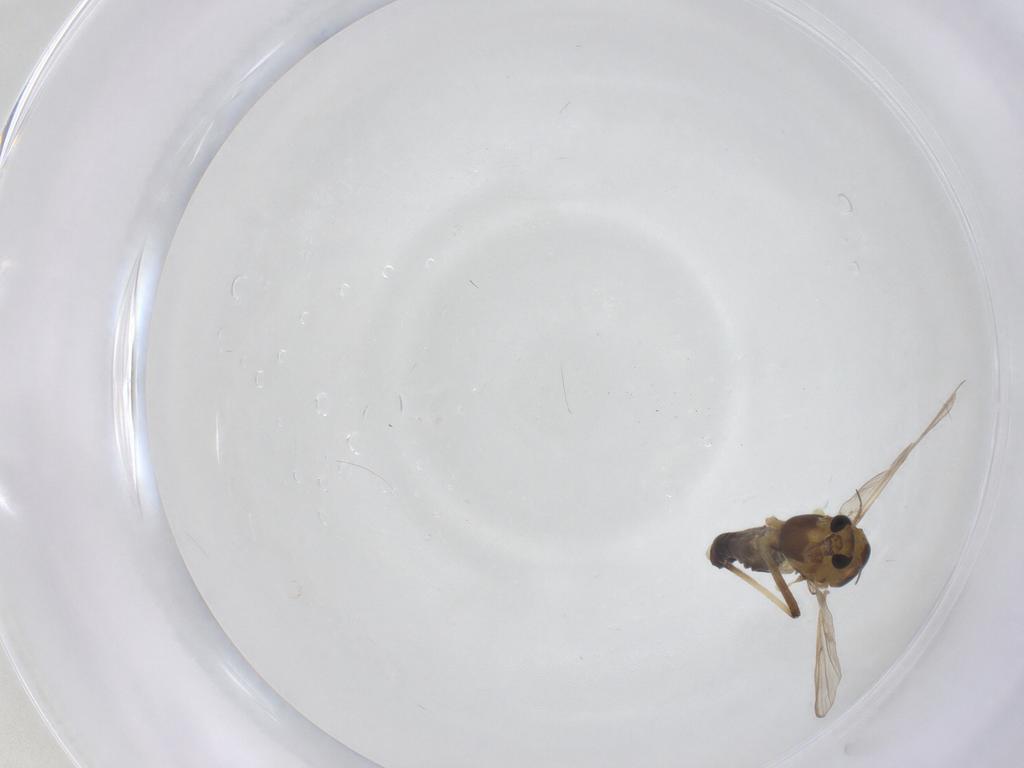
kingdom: Animalia
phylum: Arthropoda
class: Insecta
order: Diptera
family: Chironomidae
